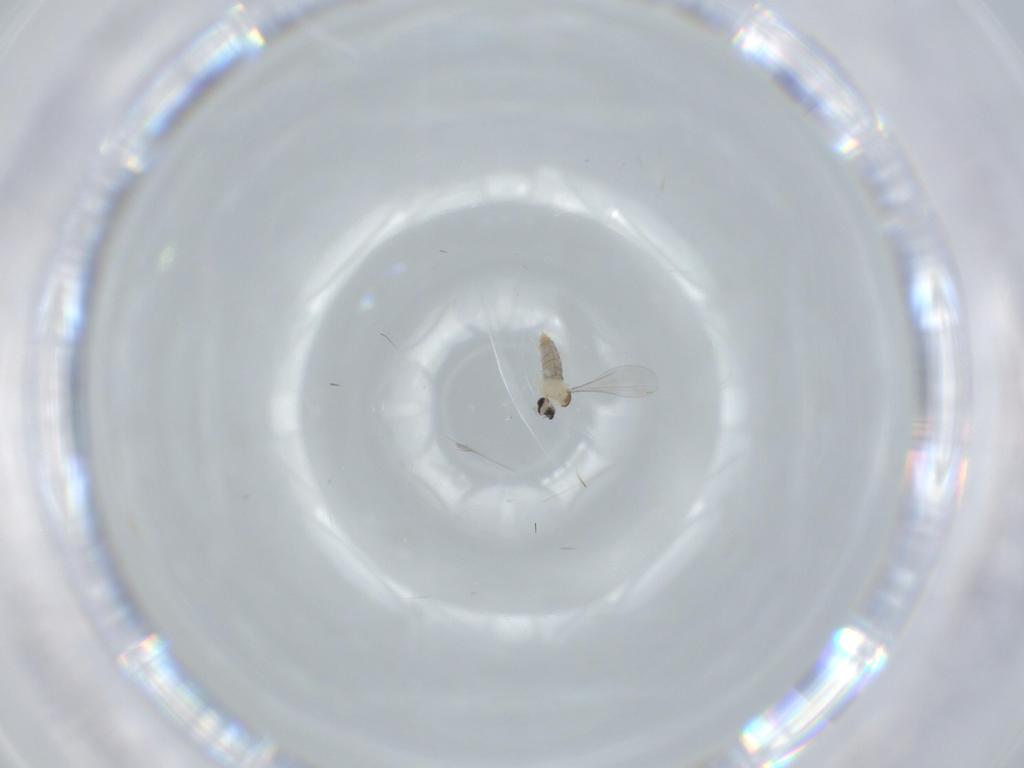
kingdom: Animalia
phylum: Arthropoda
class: Insecta
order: Diptera
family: Tabanidae
